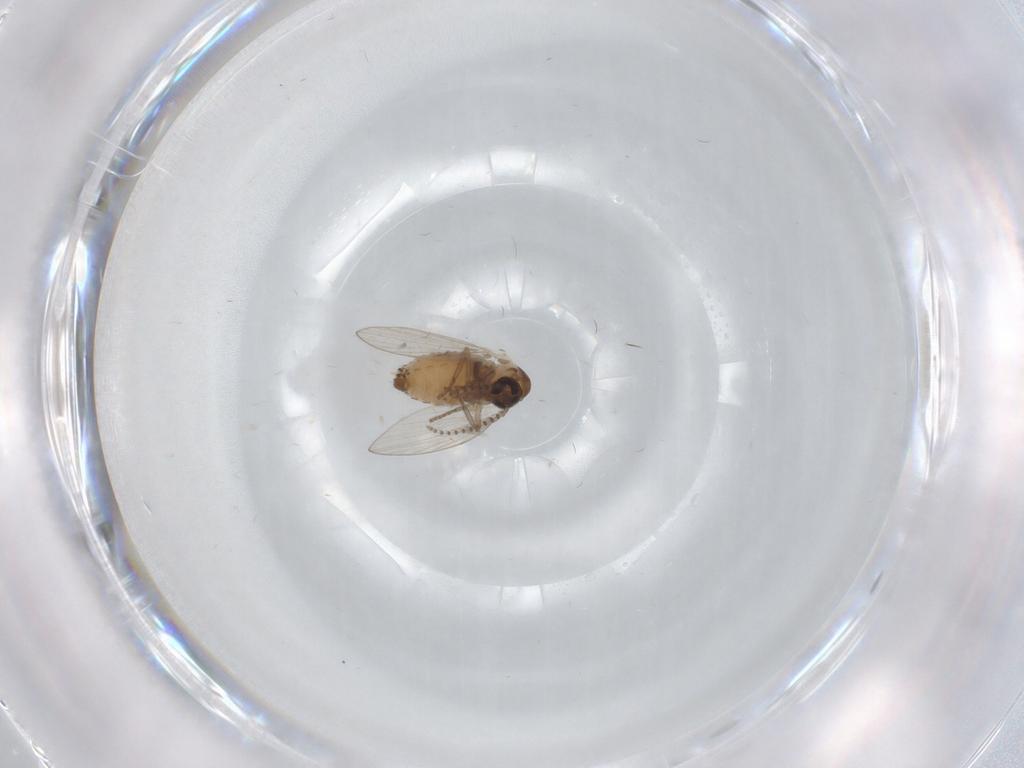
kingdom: Animalia
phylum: Arthropoda
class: Insecta
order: Diptera
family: Psychodidae
